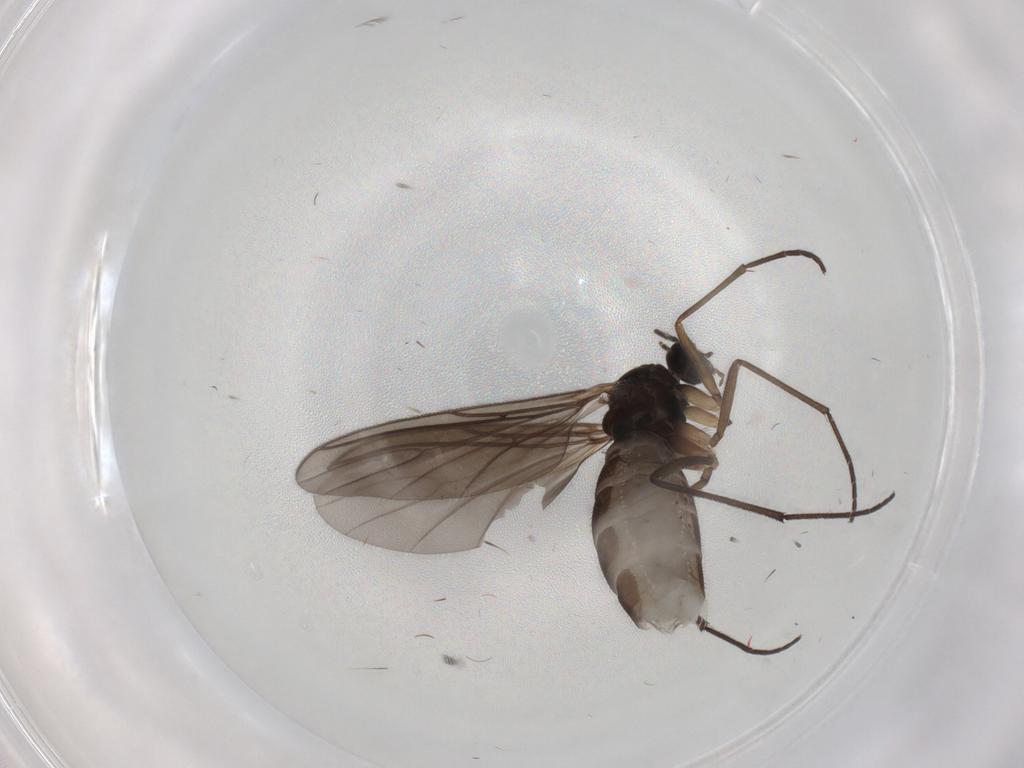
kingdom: Animalia
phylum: Arthropoda
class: Insecta
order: Diptera
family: Sciaridae
